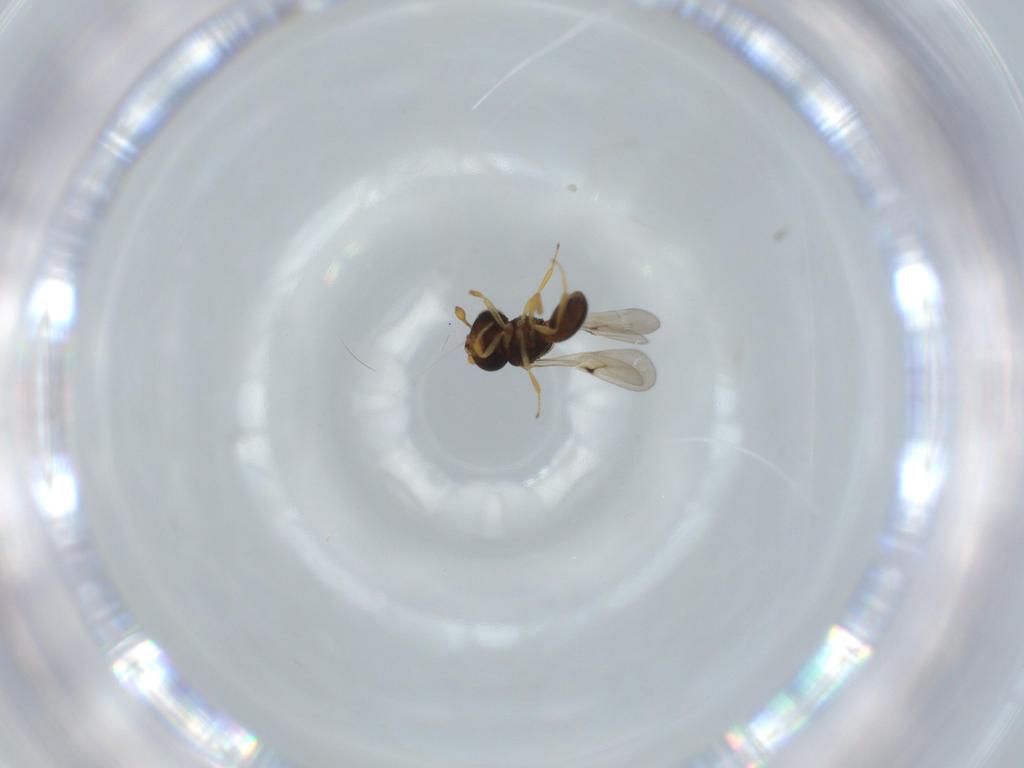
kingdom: Animalia
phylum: Arthropoda
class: Insecta
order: Hymenoptera
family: Scelionidae
